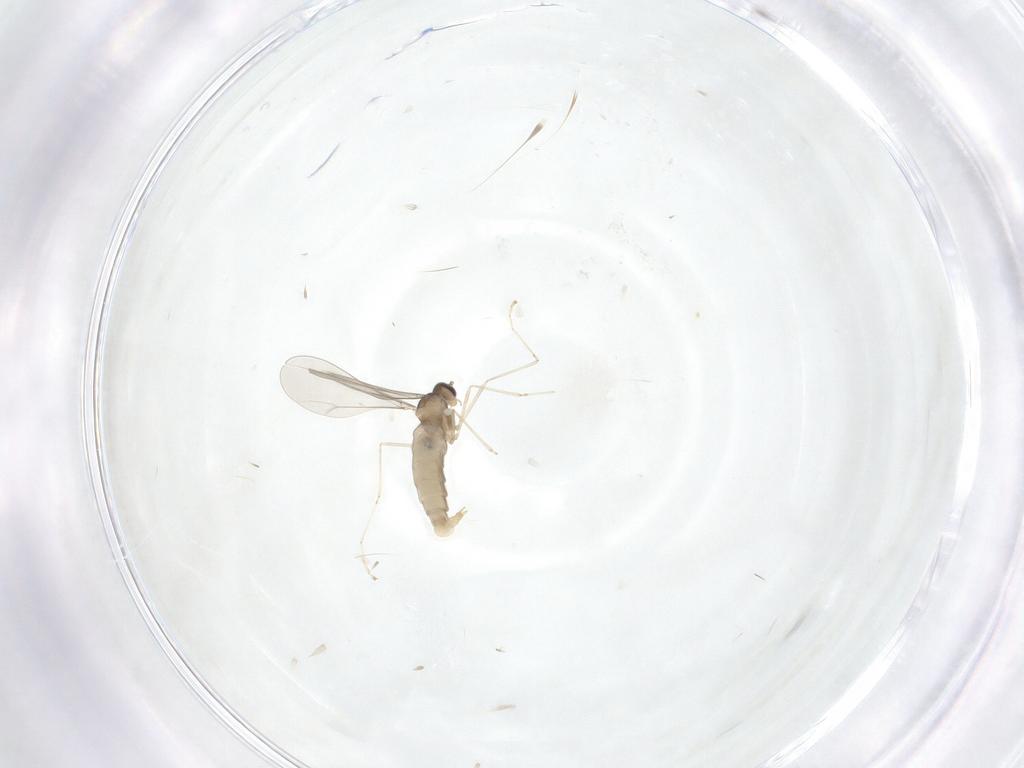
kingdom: Animalia
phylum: Arthropoda
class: Insecta
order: Diptera
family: Cecidomyiidae
